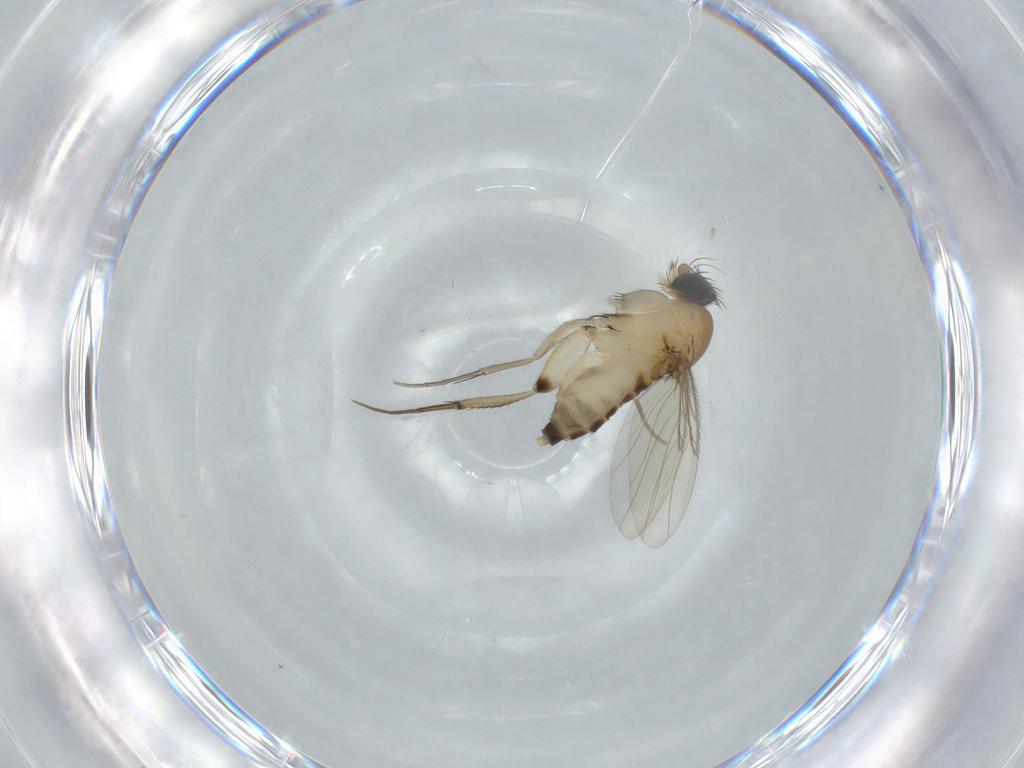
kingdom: Animalia
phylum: Arthropoda
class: Insecta
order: Diptera
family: Phoridae
